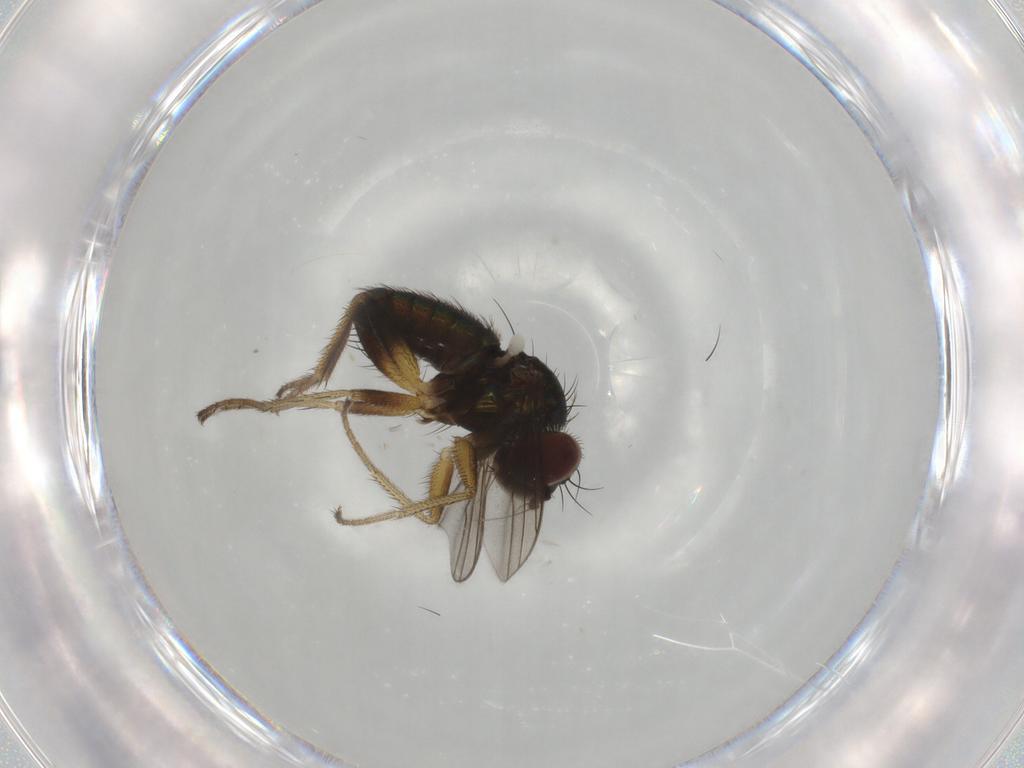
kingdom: Animalia
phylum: Arthropoda
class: Insecta
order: Diptera
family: Dolichopodidae
